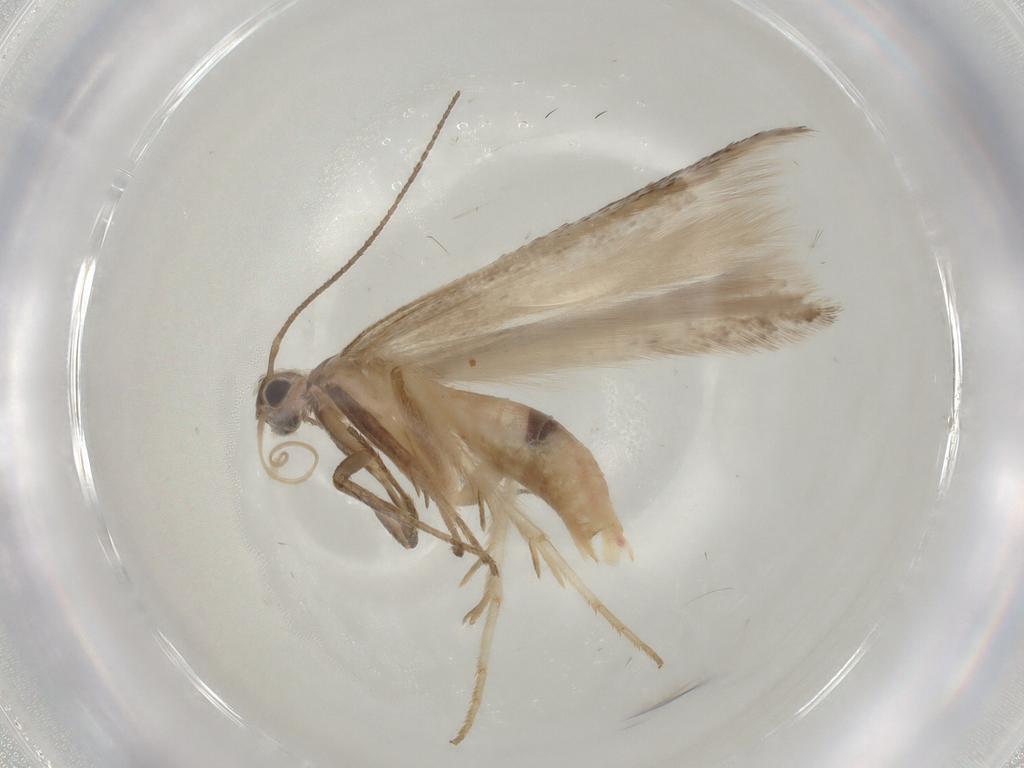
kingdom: Animalia
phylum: Arthropoda
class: Insecta
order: Lepidoptera
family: Gelechiidae
